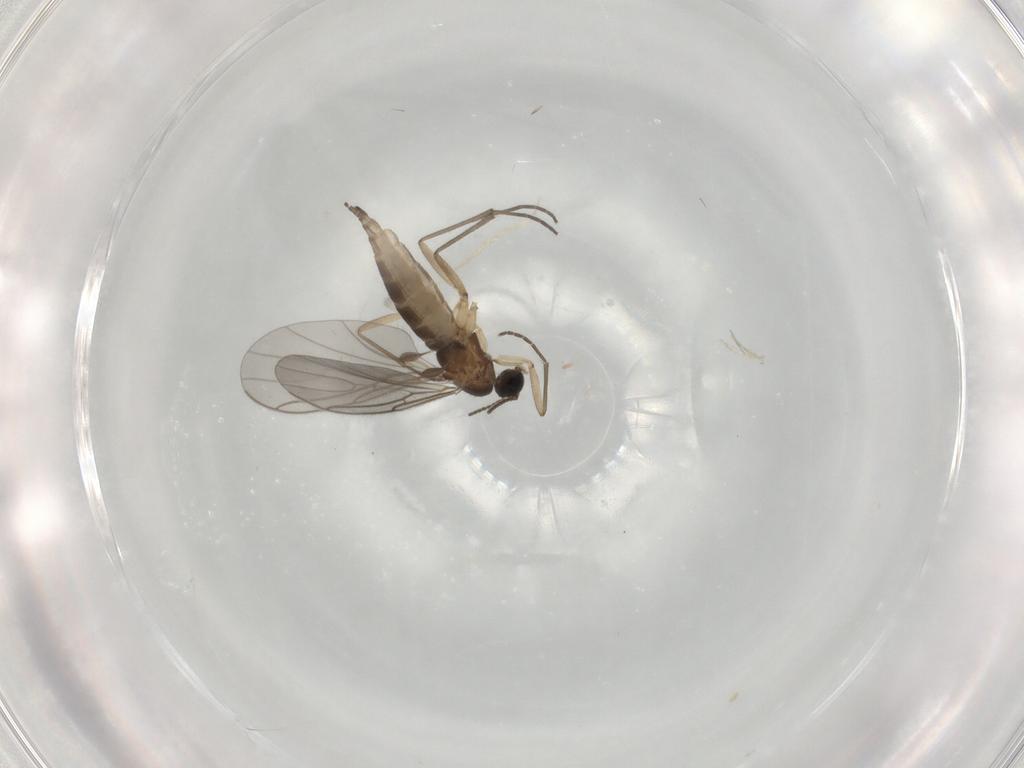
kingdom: Animalia
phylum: Arthropoda
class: Insecta
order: Diptera
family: Sciaridae
